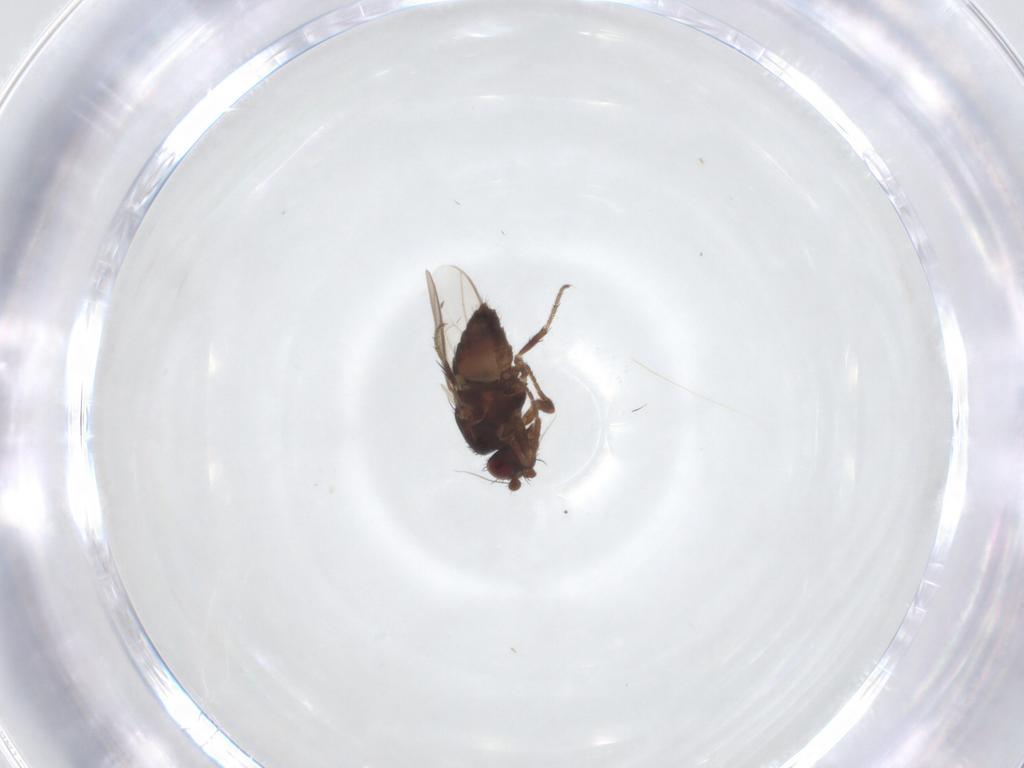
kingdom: Animalia
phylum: Arthropoda
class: Insecta
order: Diptera
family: Sphaeroceridae
